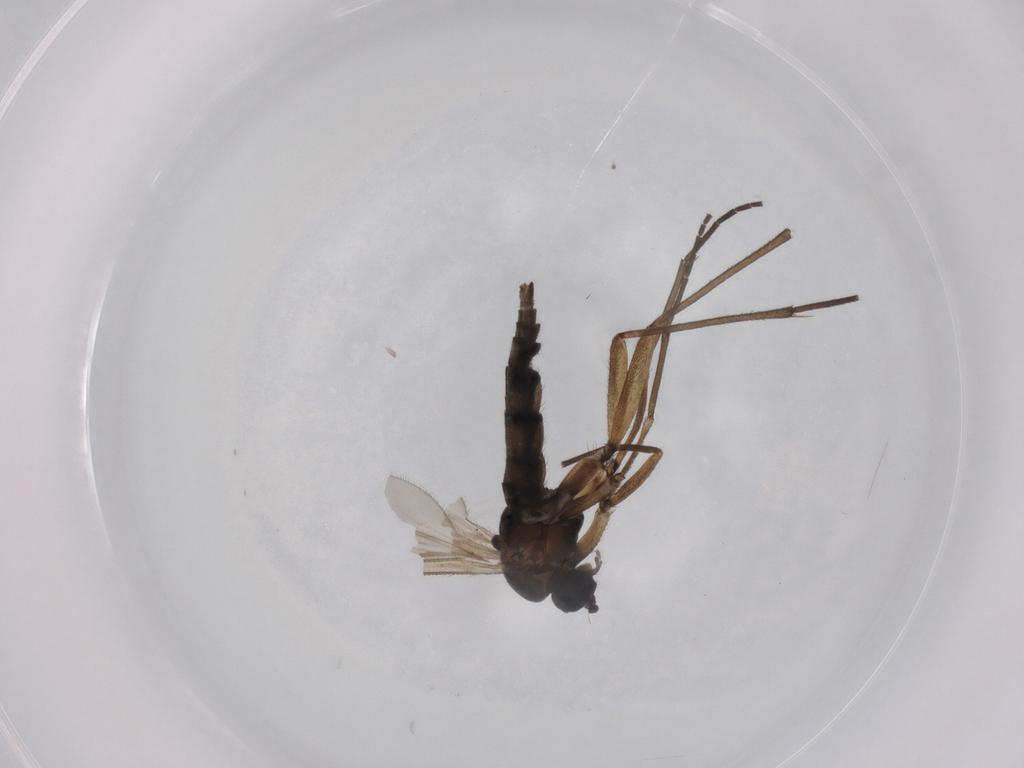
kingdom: Animalia
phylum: Arthropoda
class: Insecta
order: Diptera
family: Sciaridae
